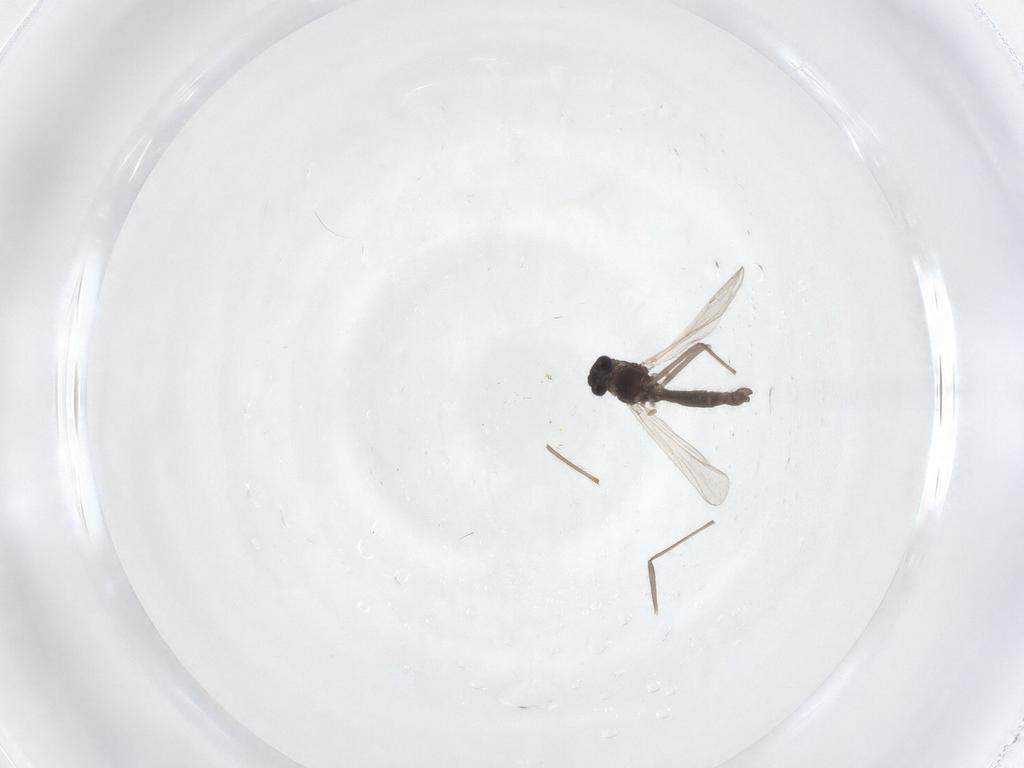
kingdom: Animalia
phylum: Arthropoda
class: Insecta
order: Diptera
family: Chironomidae
